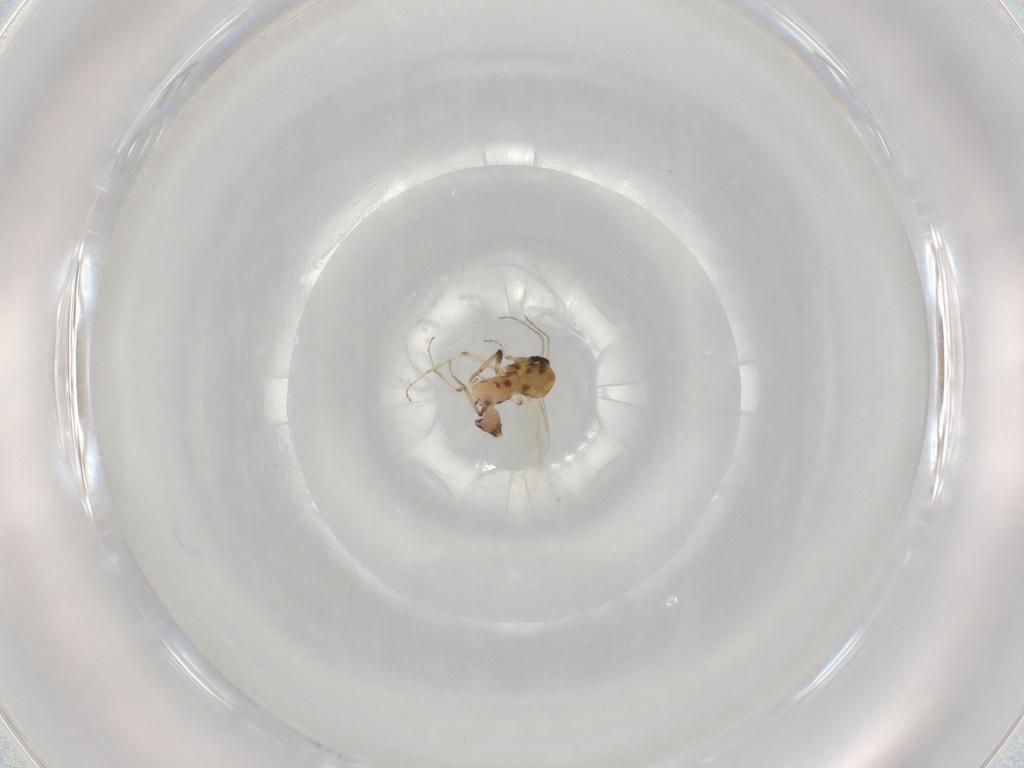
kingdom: Animalia
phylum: Arthropoda
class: Insecta
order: Diptera
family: Ceratopogonidae
